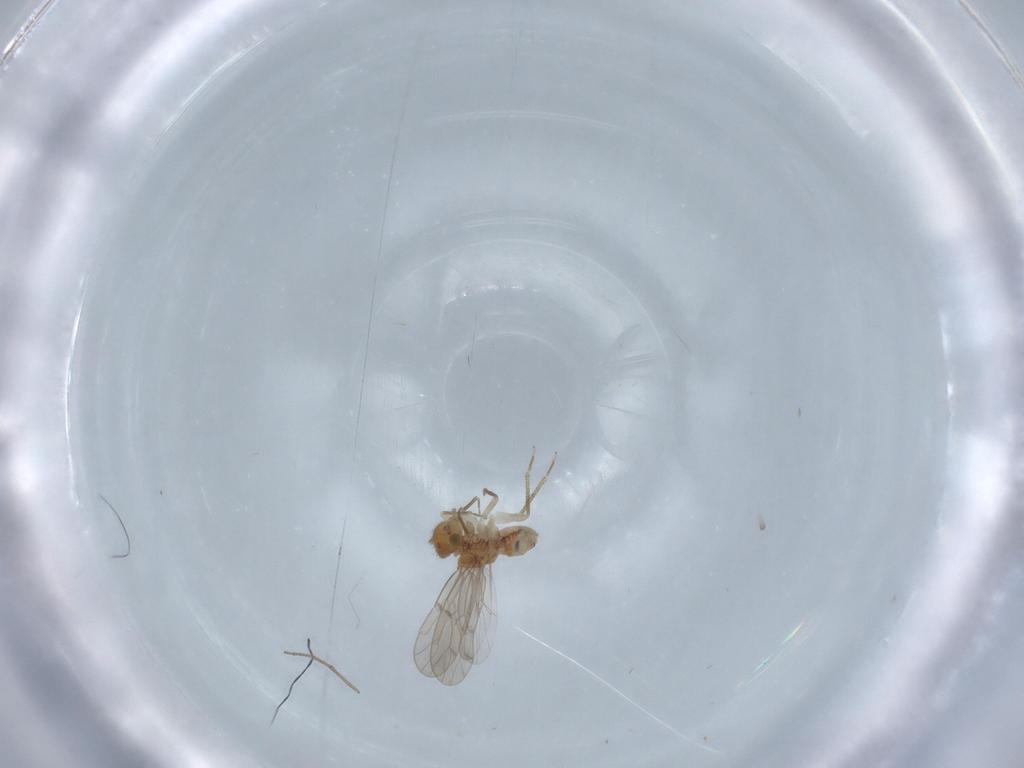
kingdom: Animalia
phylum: Arthropoda
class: Insecta
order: Psocodea
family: Ectopsocidae
